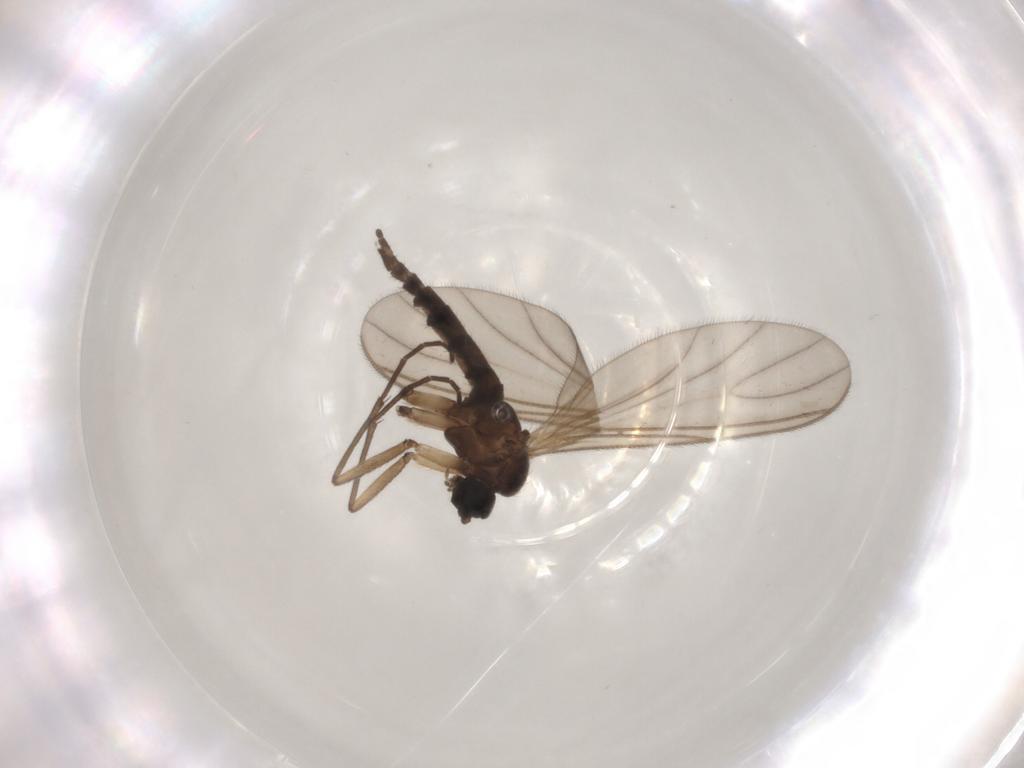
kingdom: Animalia
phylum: Arthropoda
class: Insecta
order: Diptera
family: Sciaridae
